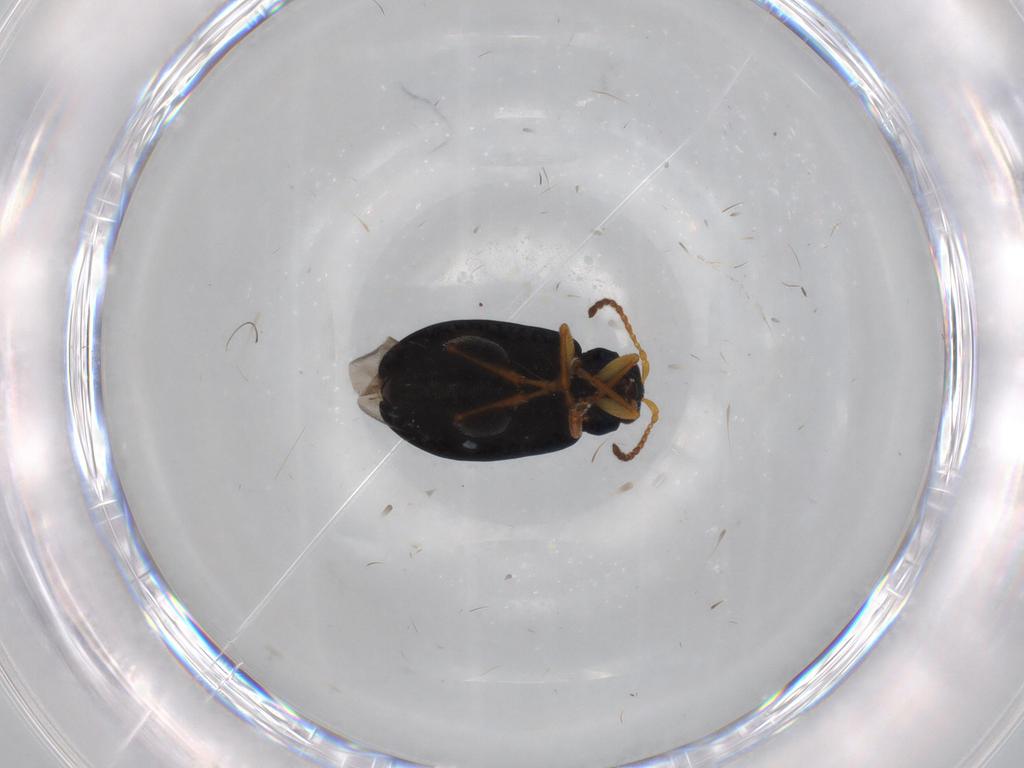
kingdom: Animalia
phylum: Arthropoda
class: Insecta
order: Coleoptera
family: Chrysomelidae
